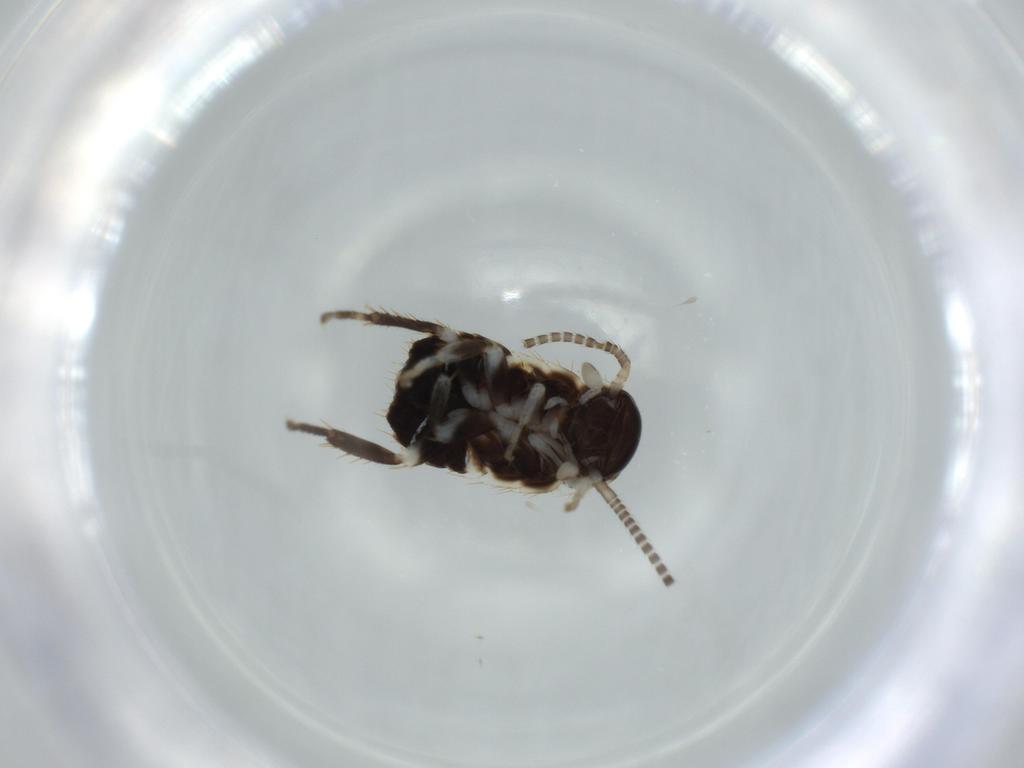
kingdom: Animalia
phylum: Arthropoda
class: Insecta
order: Blattodea
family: Ectobiidae
